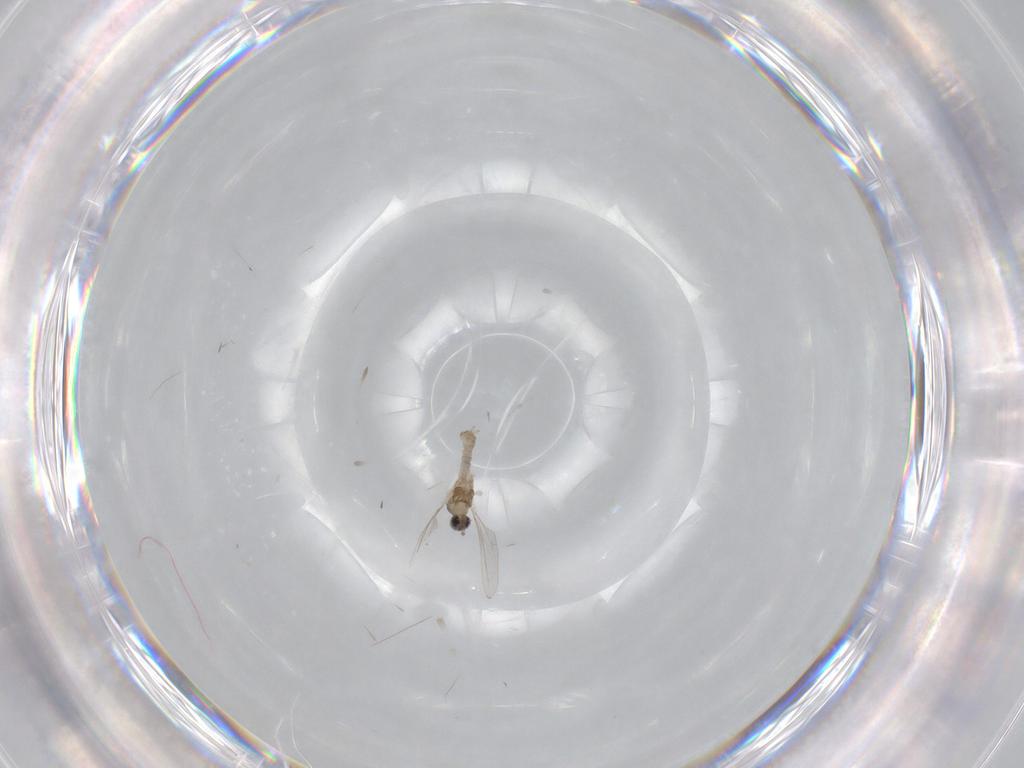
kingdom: Animalia
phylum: Arthropoda
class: Insecta
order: Diptera
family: Cecidomyiidae
